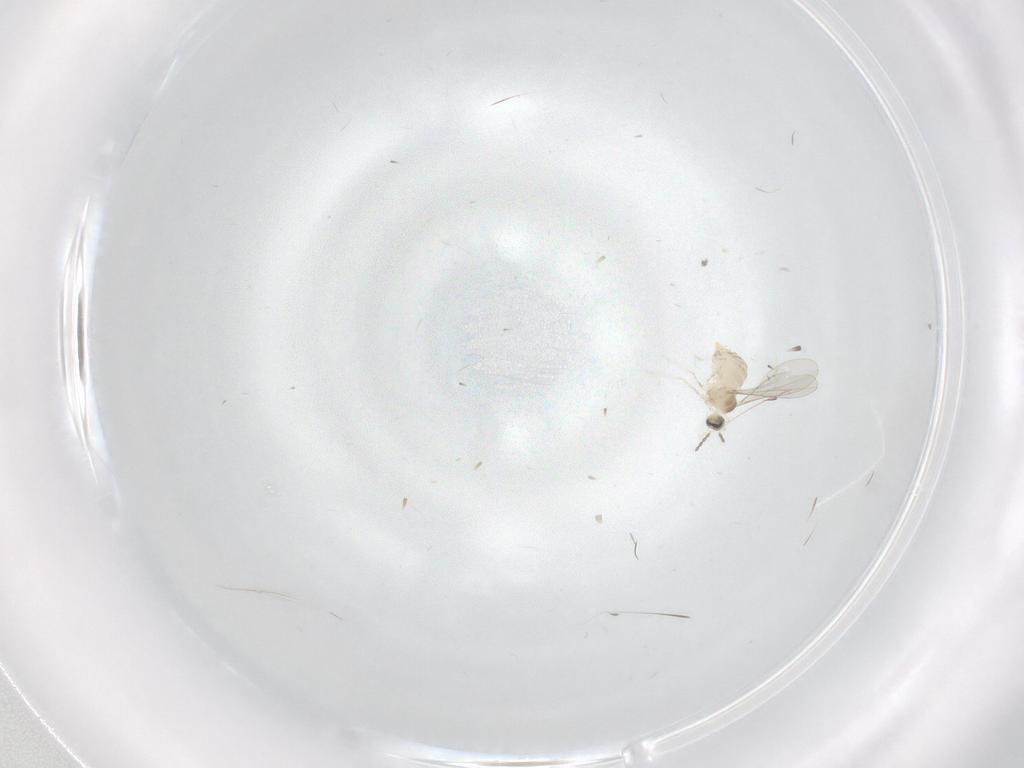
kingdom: Animalia
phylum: Arthropoda
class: Insecta
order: Diptera
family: Cecidomyiidae
